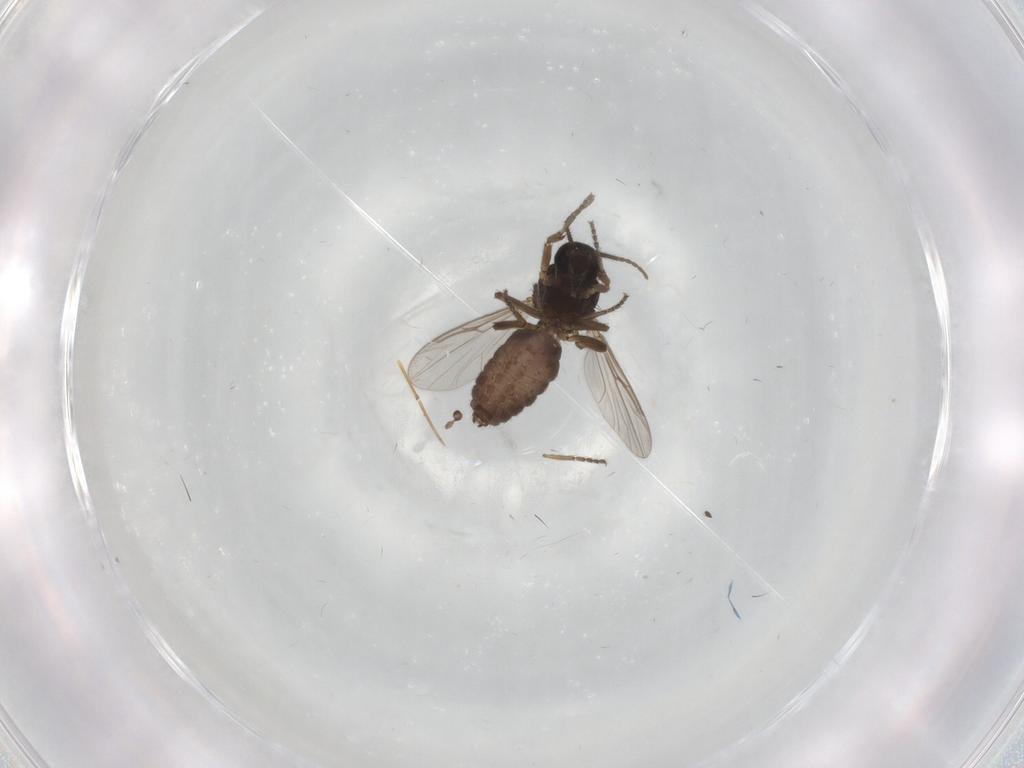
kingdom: Animalia
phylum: Arthropoda
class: Insecta
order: Diptera
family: Ceratopogonidae
